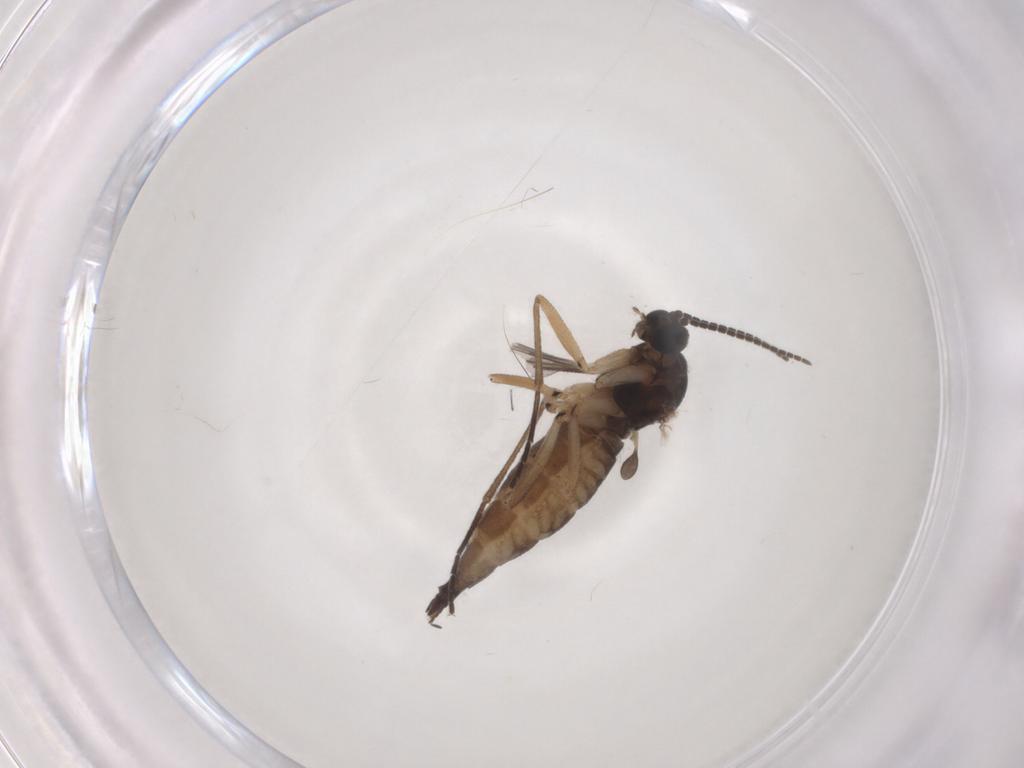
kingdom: Animalia
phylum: Arthropoda
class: Insecta
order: Diptera
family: Sciaridae
